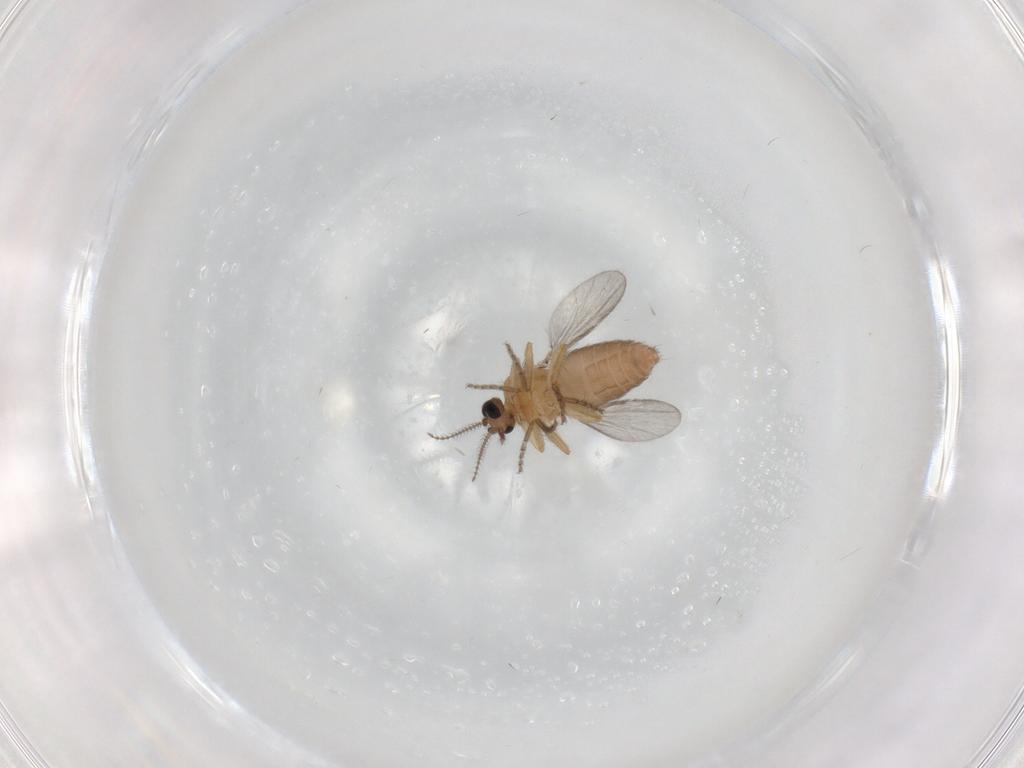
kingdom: Animalia
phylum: Arthropoda
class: Insecta
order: Diptera
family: Ceratopogonidae
